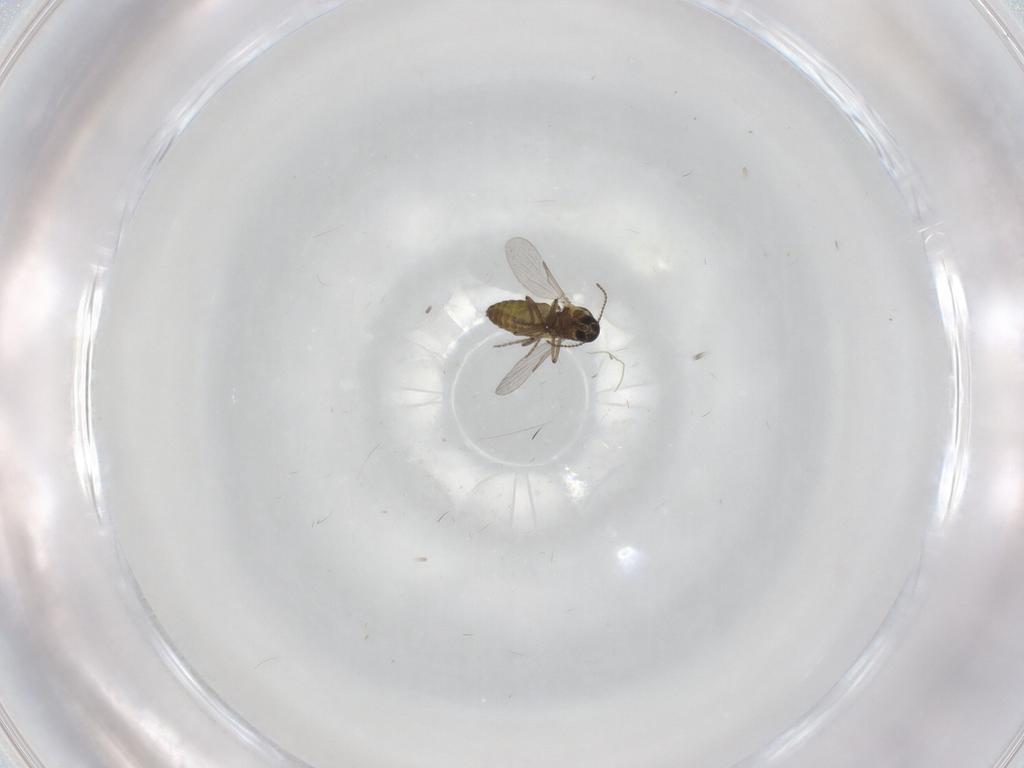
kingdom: Animalia
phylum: Arthropoda
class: Insecta
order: Diptera
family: Ceratopogonidae
